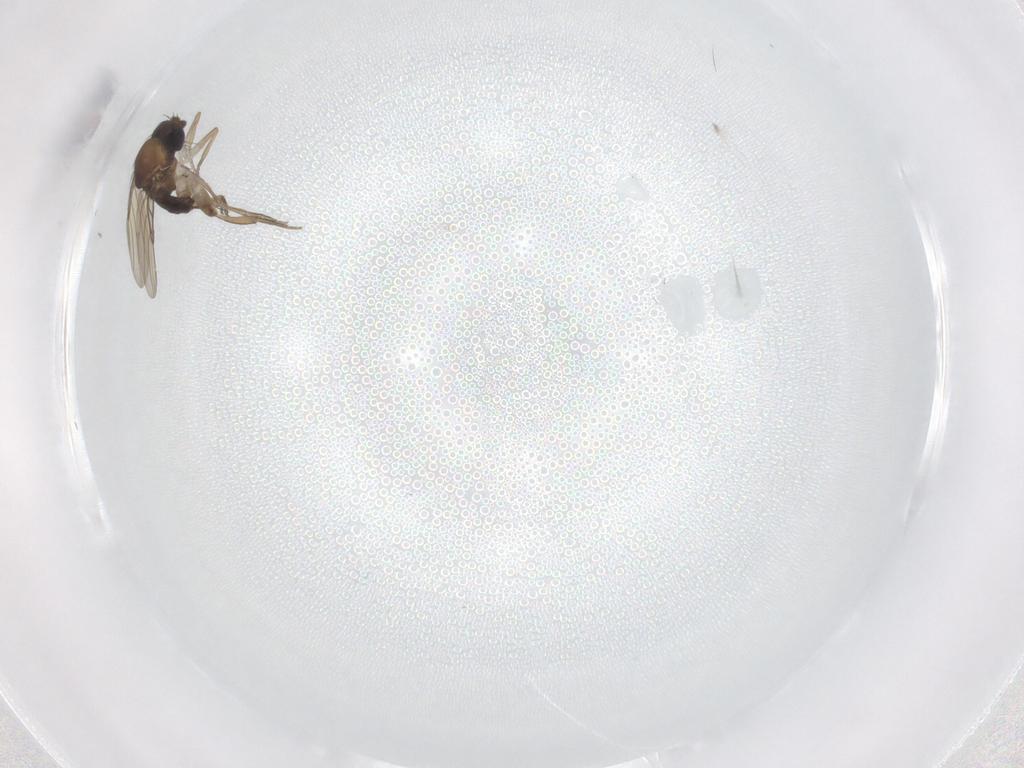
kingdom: Animalia
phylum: Arthropoda
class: Insecta
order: Diptera
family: Phoridae
